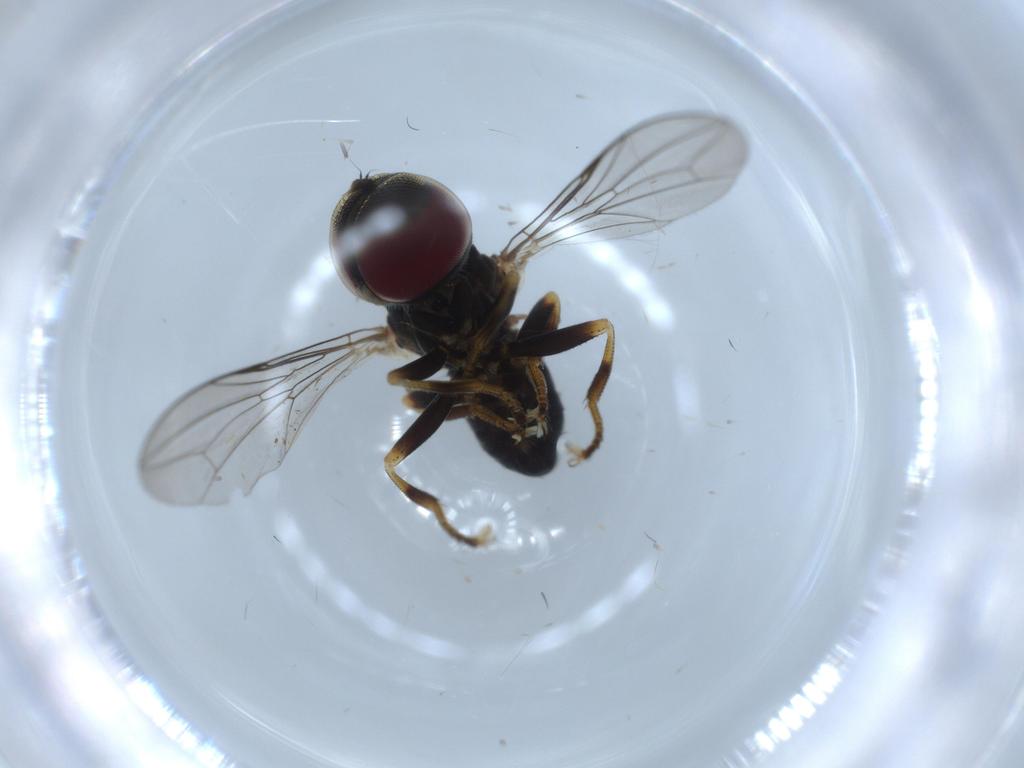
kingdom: Animalia
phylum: Arthropoda
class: Insecta
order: Diptera
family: Pipunculidae
